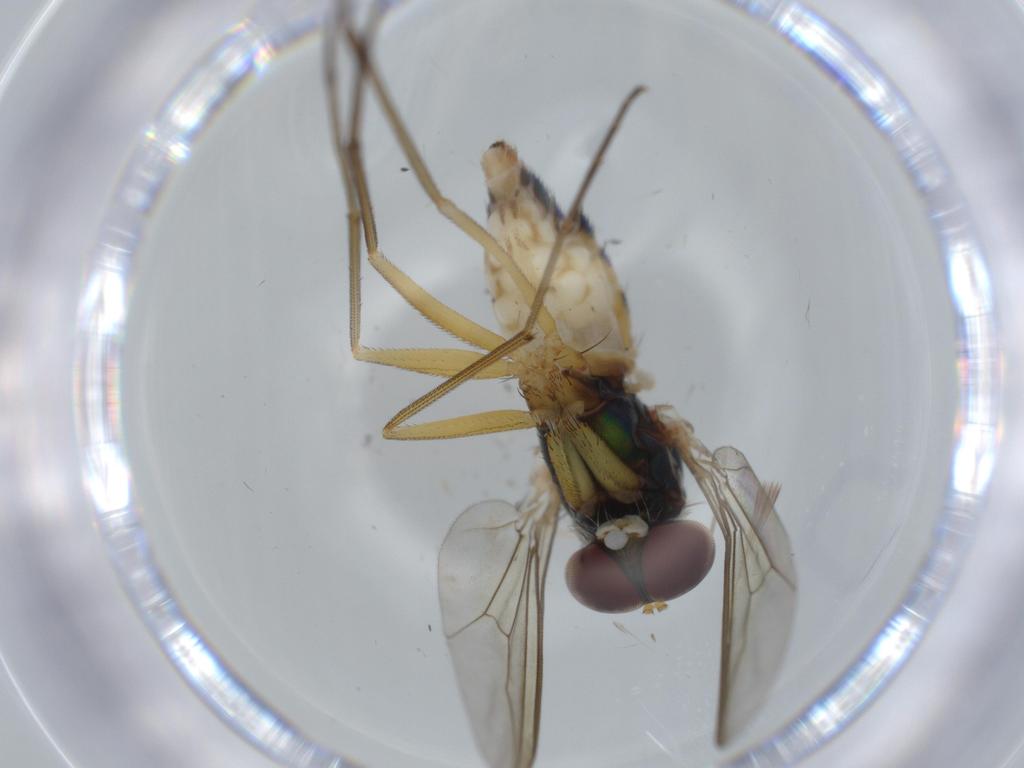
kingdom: Animalia
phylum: Arthropoda
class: Insecta
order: Diptera
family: Dolichopodidae
